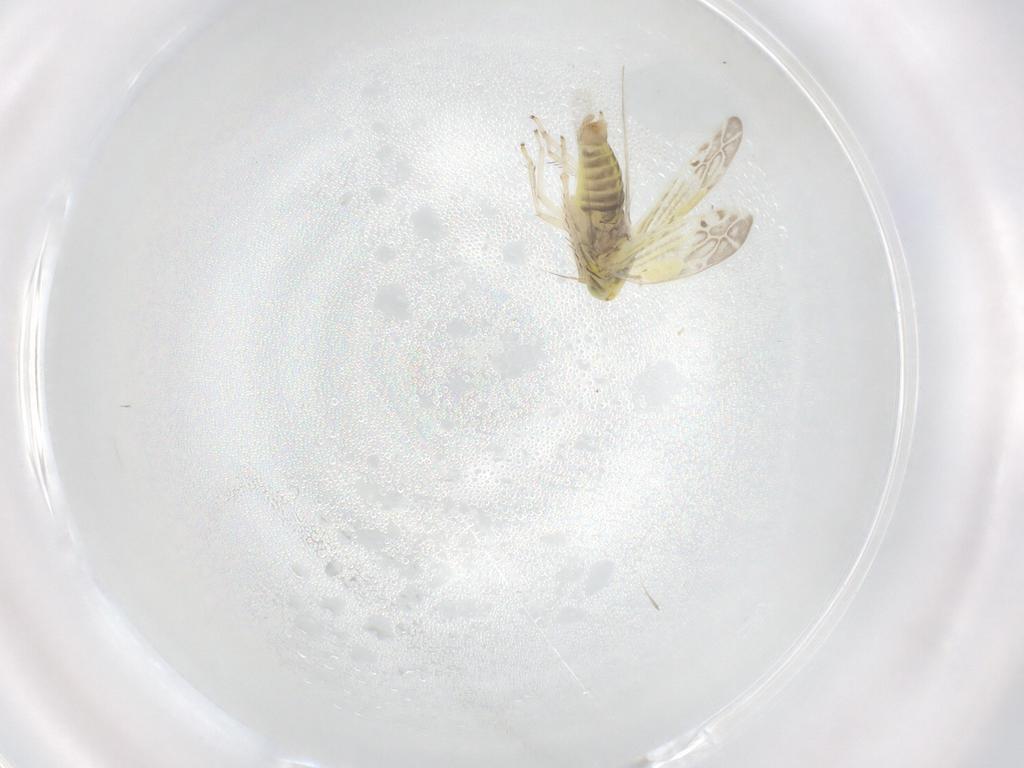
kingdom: Animalia
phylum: Arthropoda
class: Insecta
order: Hemiptera
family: Cicadellidae
